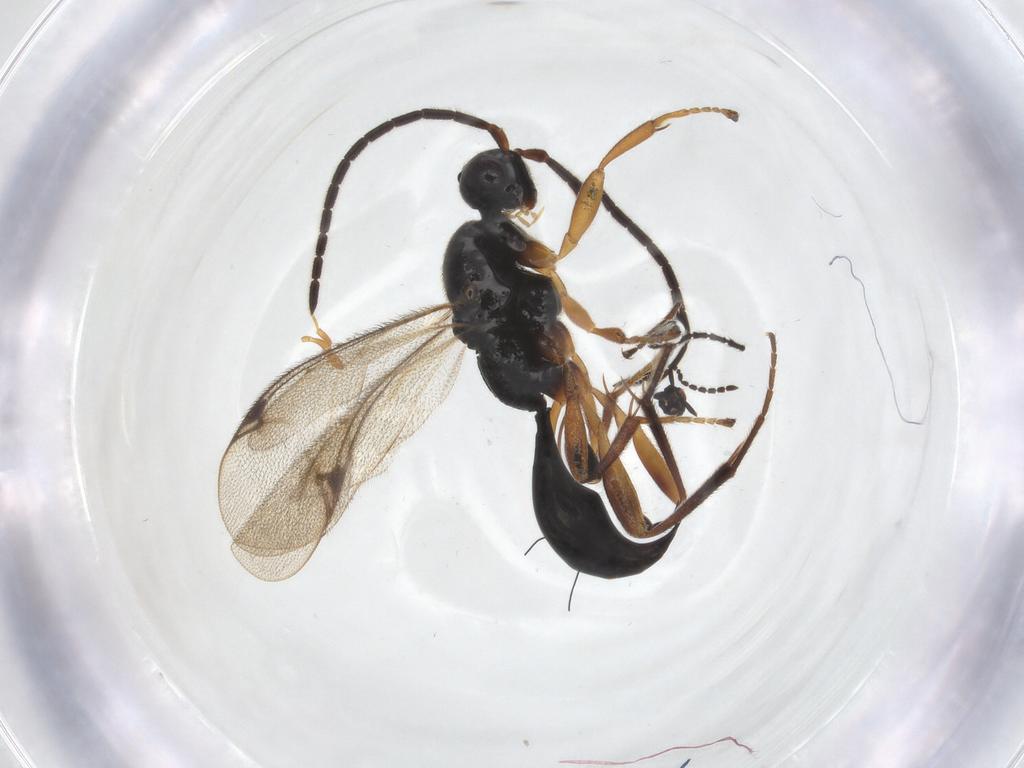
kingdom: Animalia
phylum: Arthropoda
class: Insecta
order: Hymenoptera
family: Proctotrupidae
